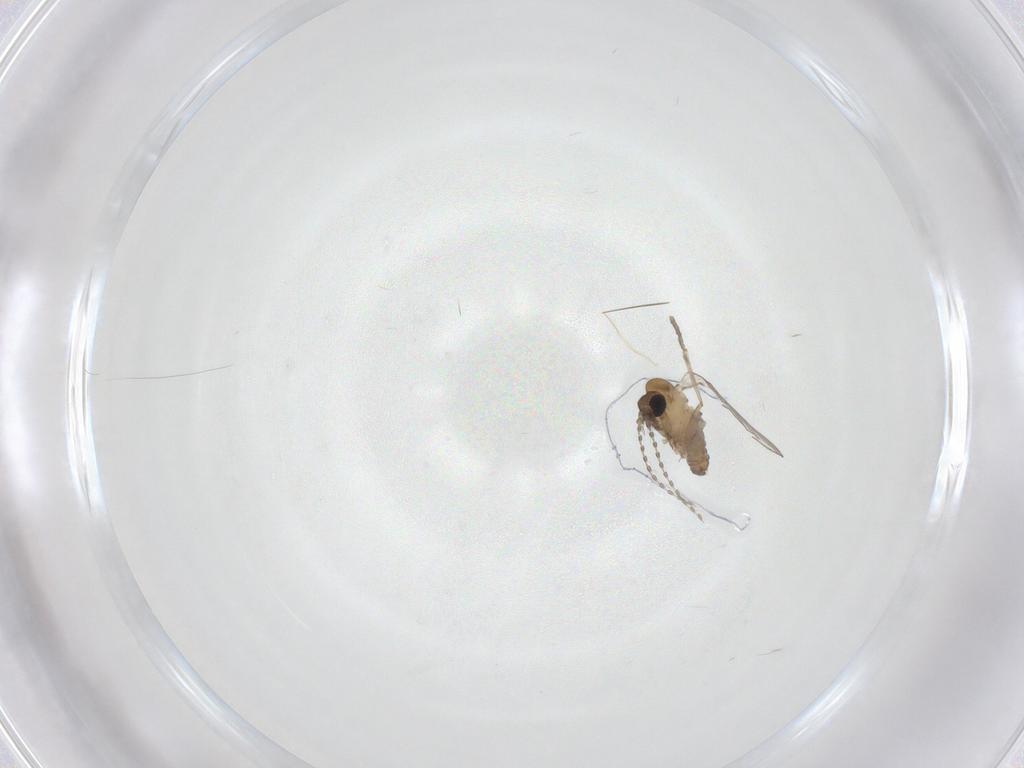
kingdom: Animalia
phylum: Arthropoda
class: Insecta
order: Diptera
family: Psychodidae
